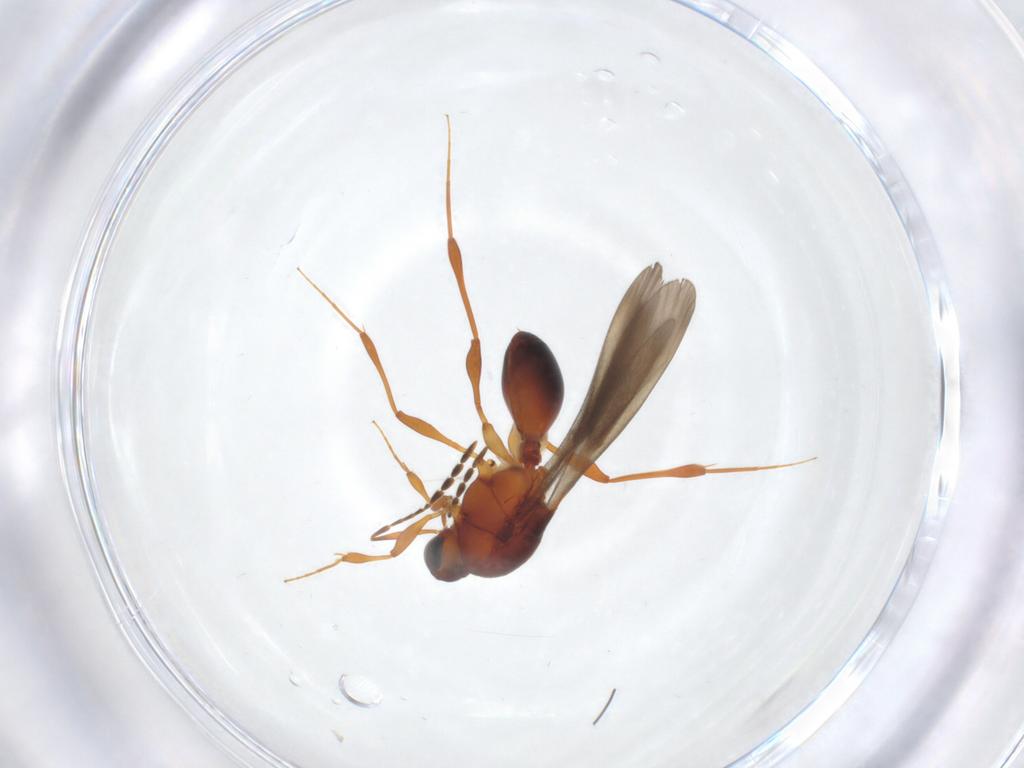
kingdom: Animalia
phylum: Arthropoda
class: Insecta
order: Hymenoptera
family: Platygastridae
